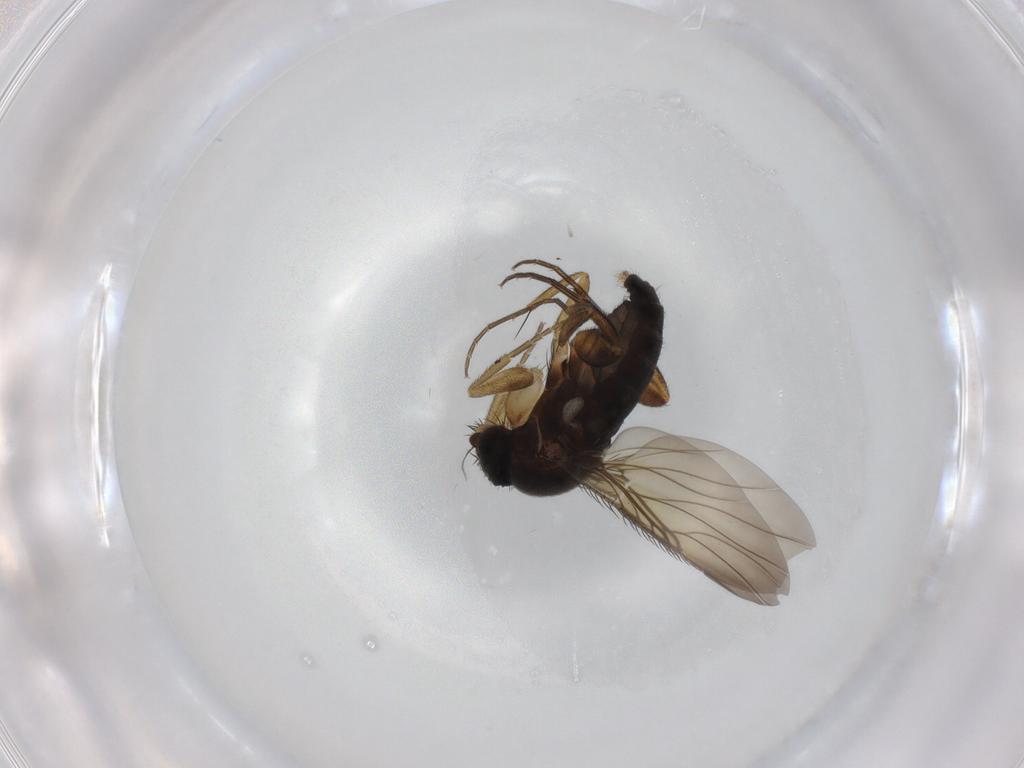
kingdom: Animalia
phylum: Arthropoda
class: Insecta
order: Diptera
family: Phoridae
